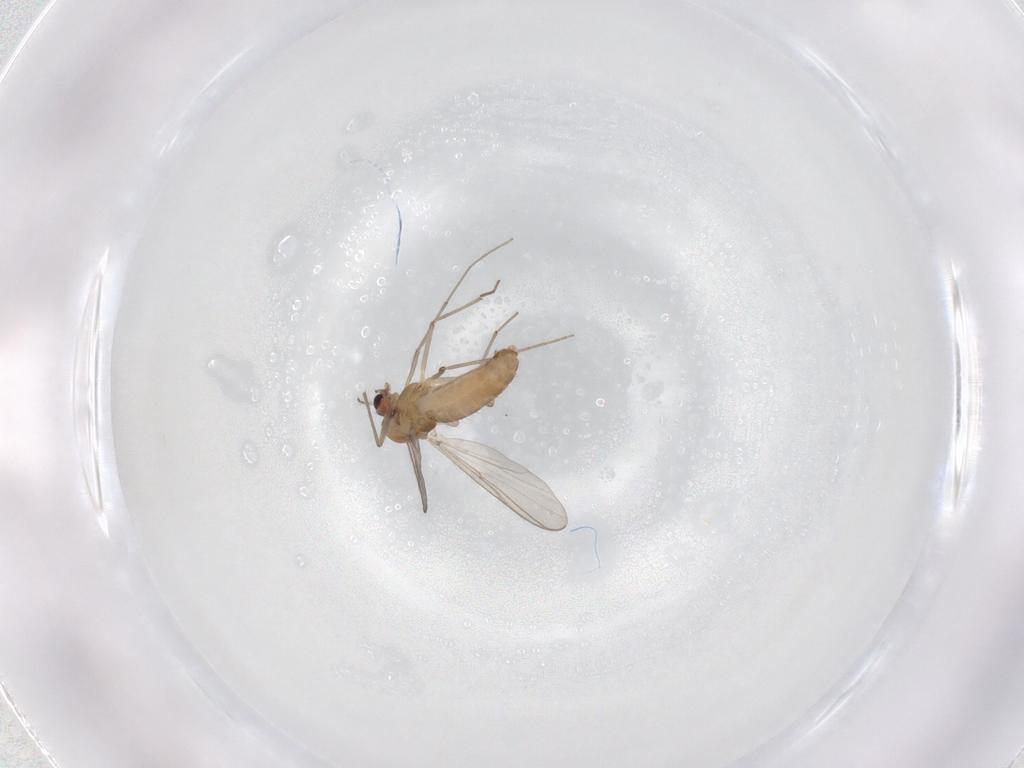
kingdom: Animalia
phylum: Arthropoda
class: Insecta
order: Diptera
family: Chironomidae
